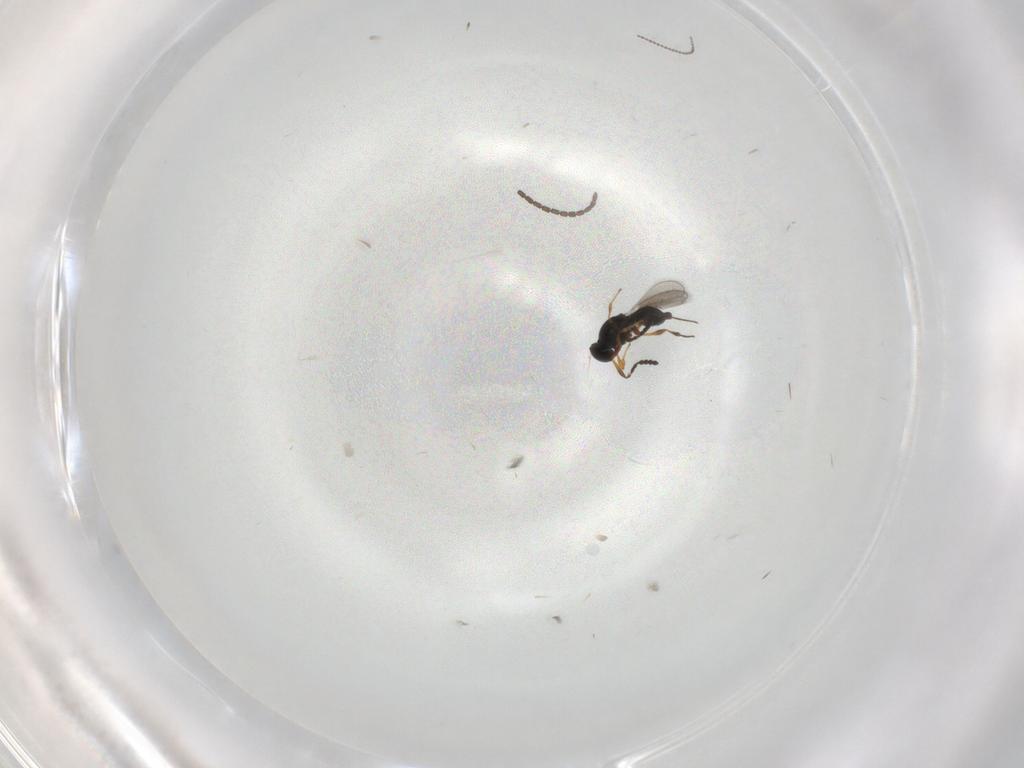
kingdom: Animalia
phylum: Arthropoda
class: Insecta
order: Hymenoptera
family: Platygastridae
